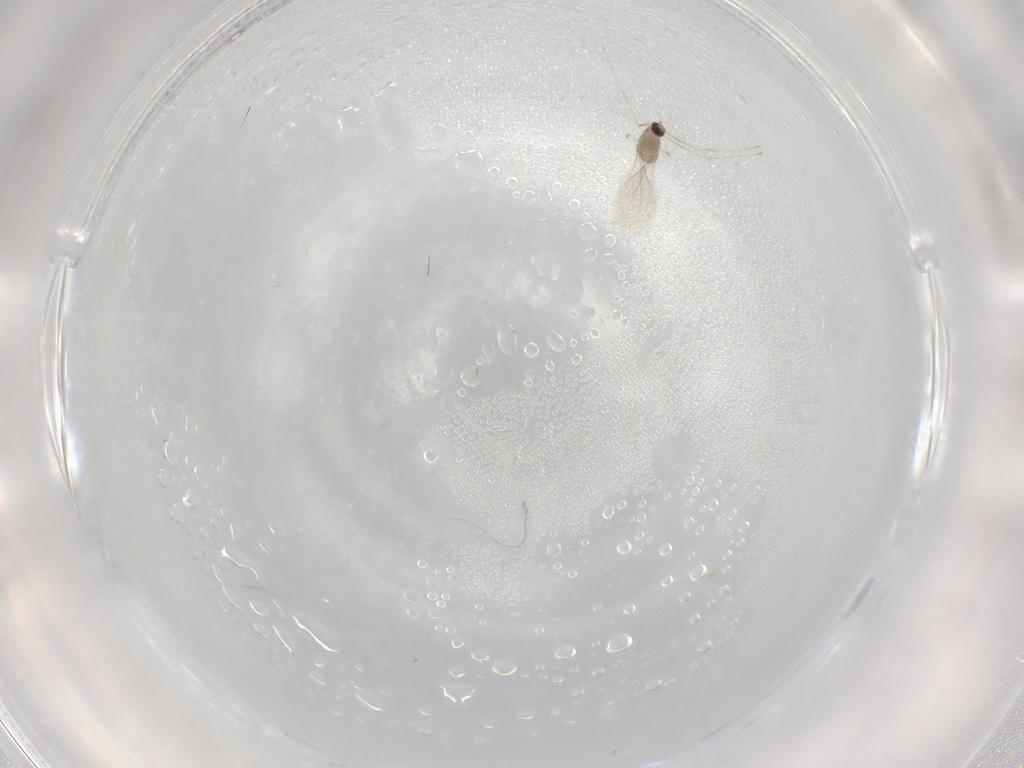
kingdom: Animalia
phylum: Arthropoda
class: Insecta
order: Diptera
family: Cecidomyiidae
